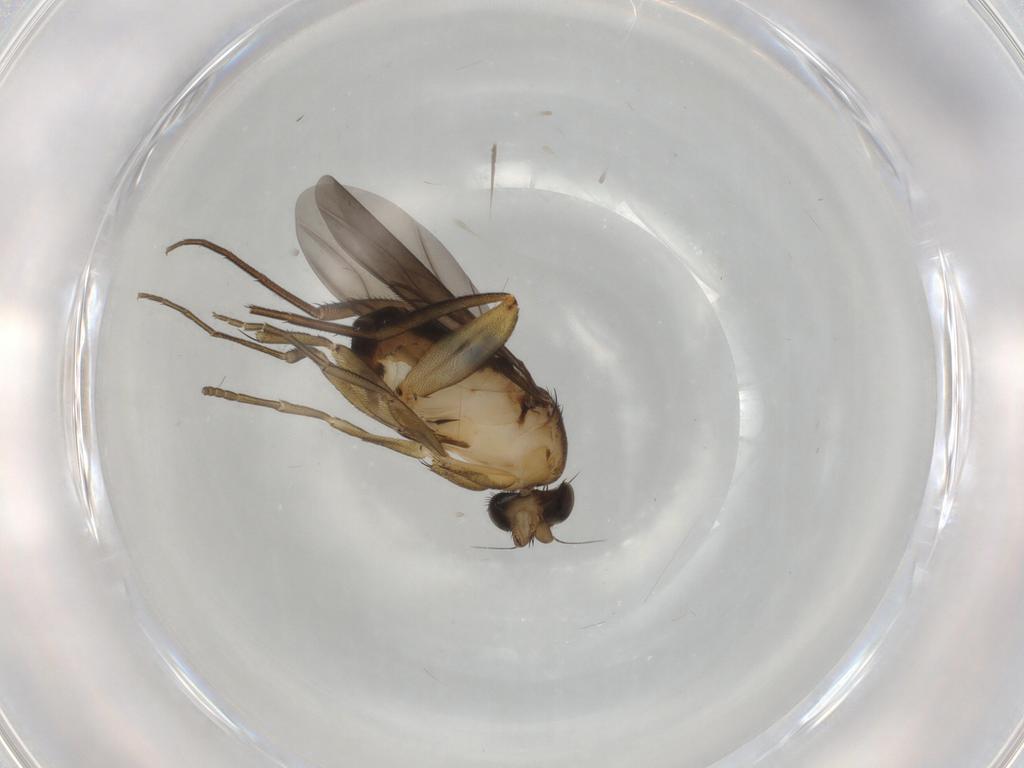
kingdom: Animalia
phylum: Arthropoda
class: Insecta
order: Diptera
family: Phoridae
